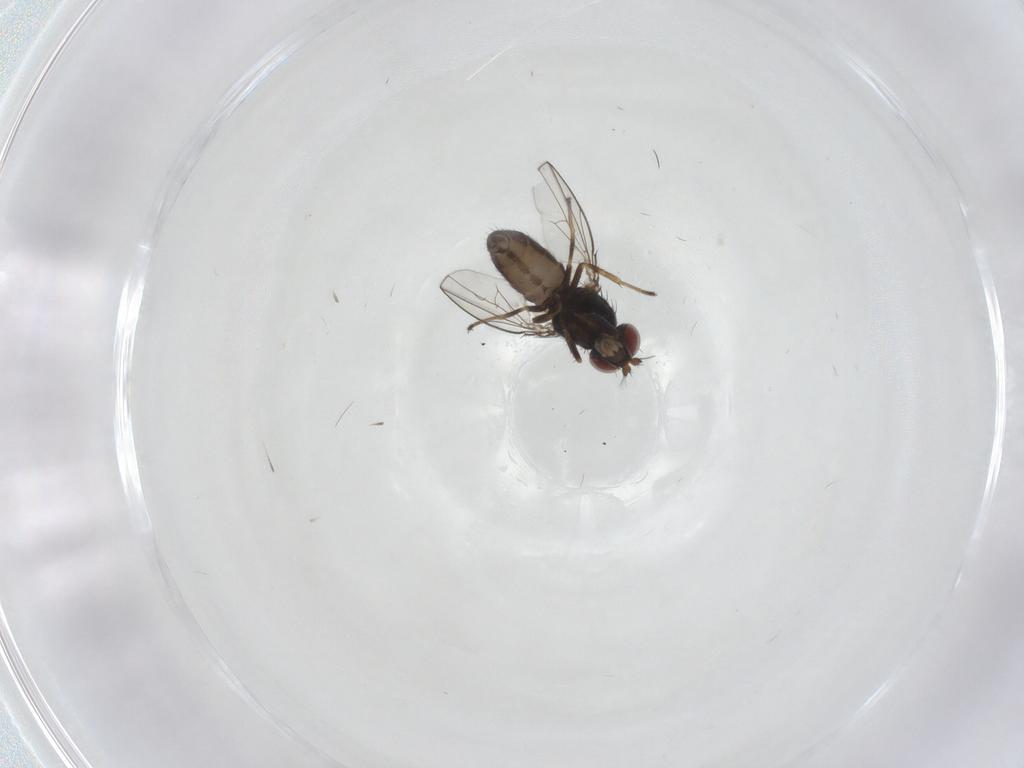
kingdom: Animalia
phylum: Arthropoda
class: Insecta
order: Diptera
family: Ephydridae
